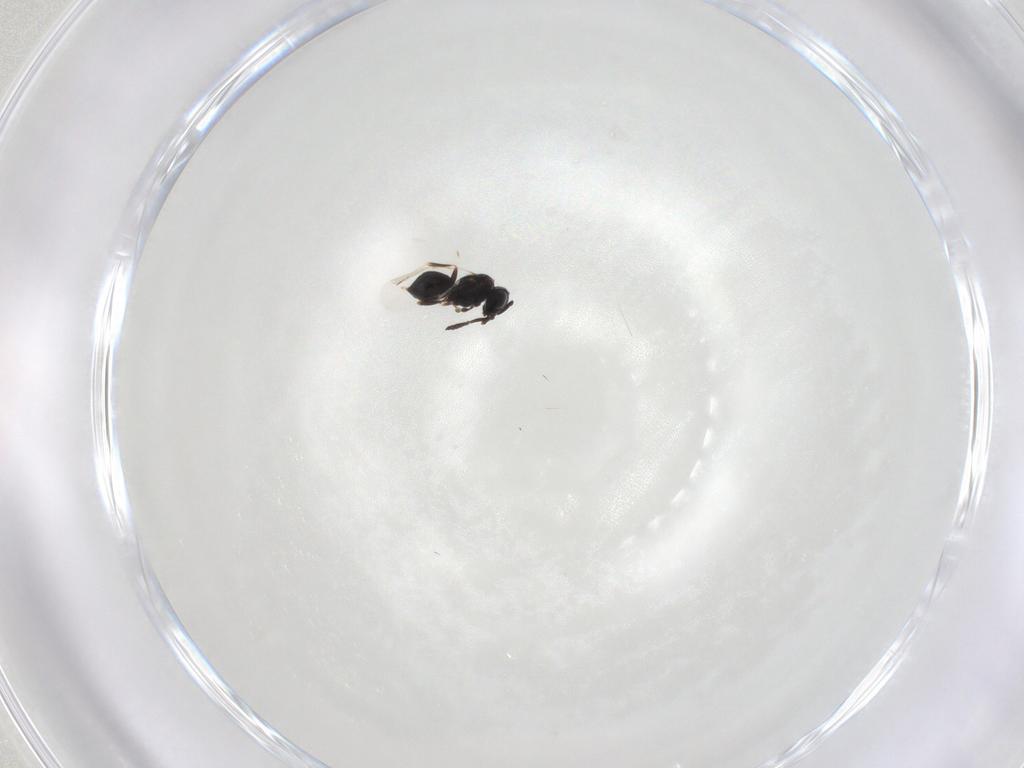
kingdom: Animalia
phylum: Arthropoda
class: Insecta
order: Hymenoptera
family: Scelionidae
